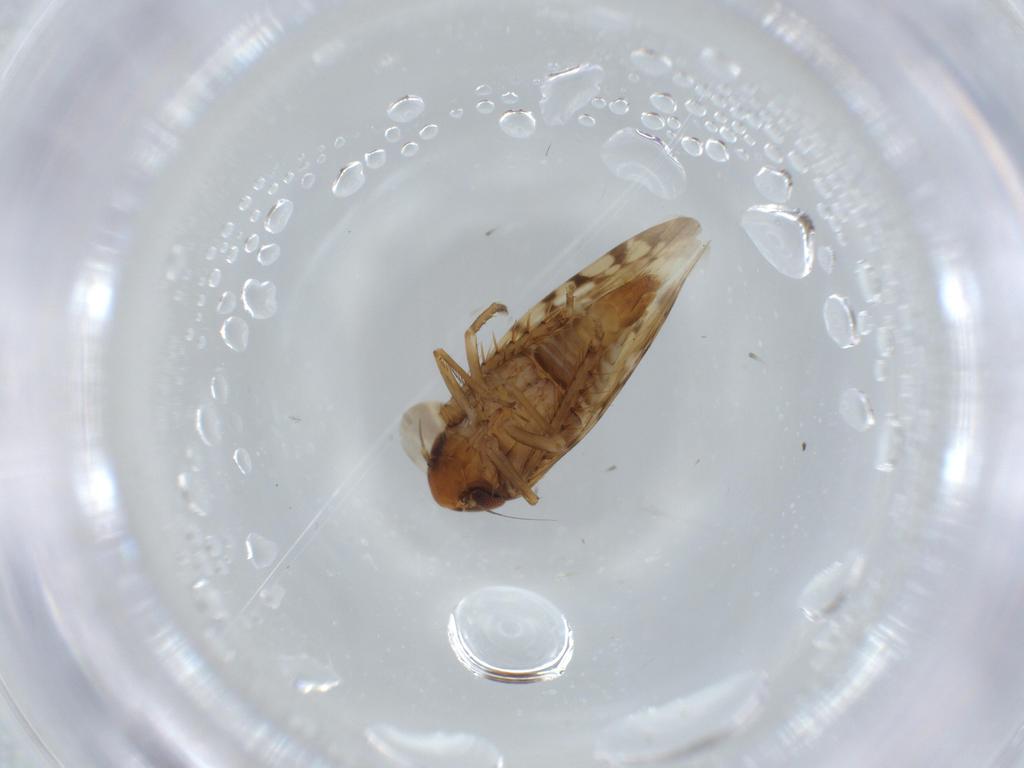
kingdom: Animalia
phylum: Arthropoda
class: Insecta
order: Hemiptera
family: Cicadellidae
